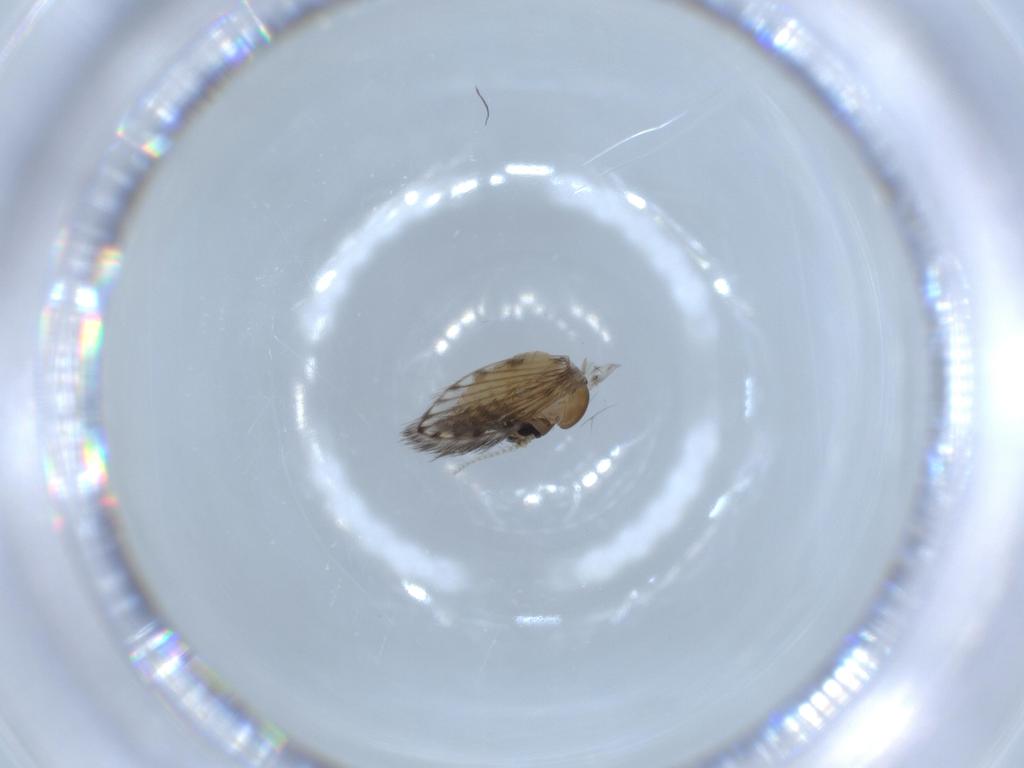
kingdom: Animalia
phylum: Arthropoda
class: Insecta
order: Diptera
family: Psychodidae
